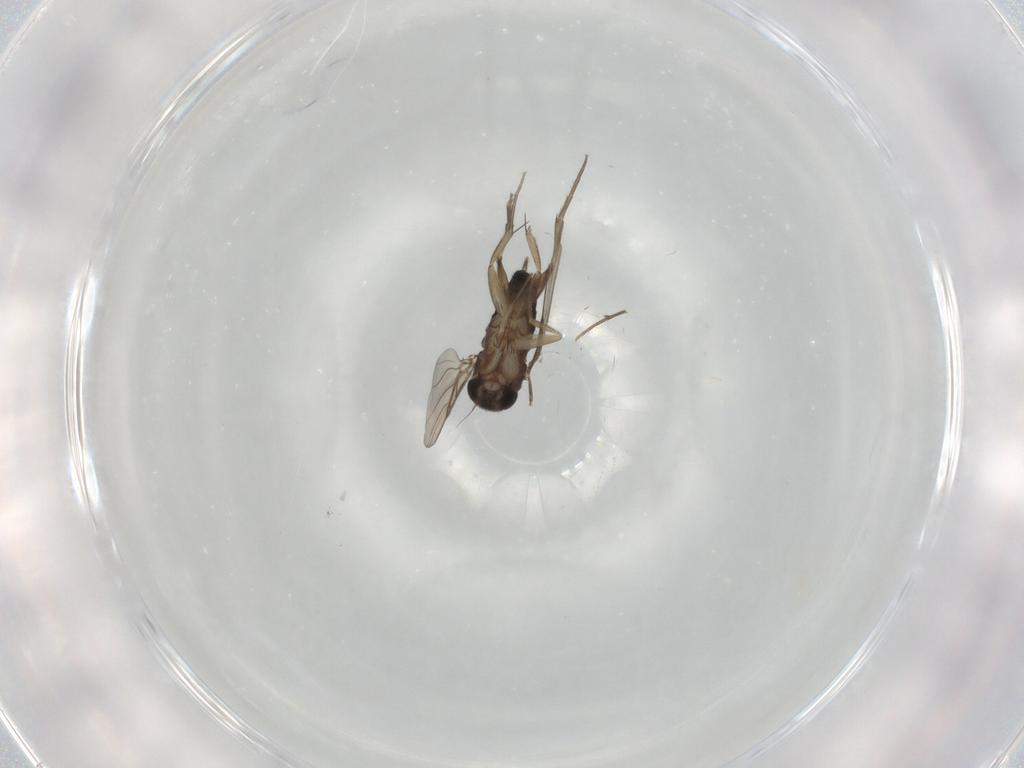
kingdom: Animalia
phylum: Arthropoda
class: Insecta
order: Diptera
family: Phoridae
